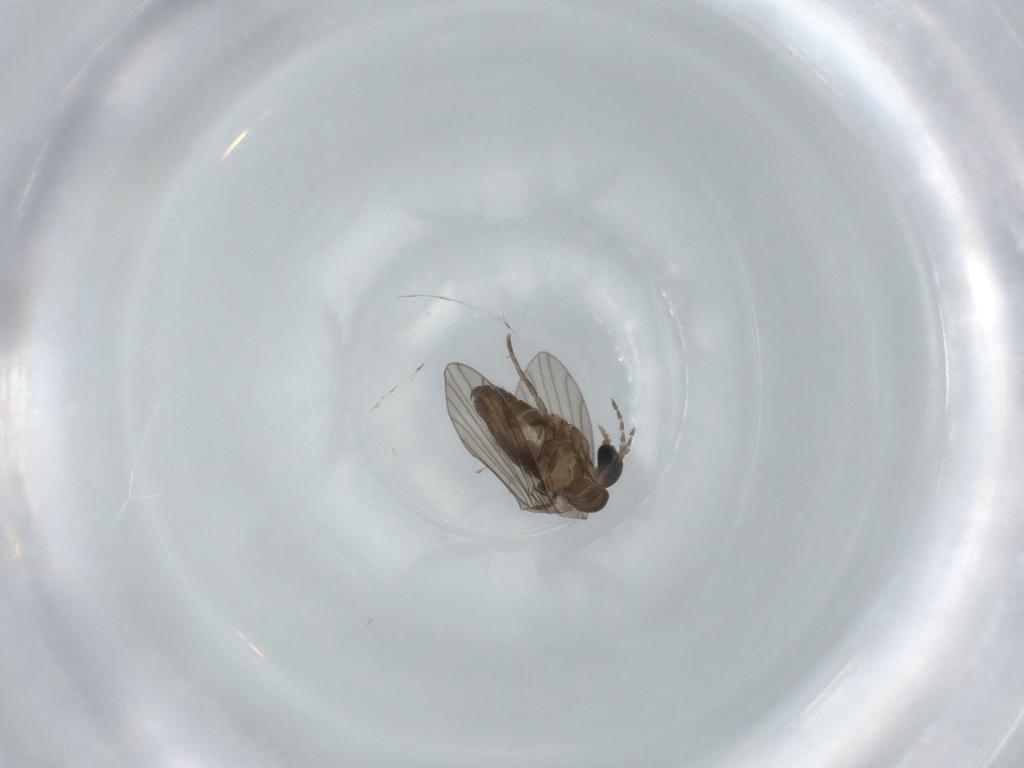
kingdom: Animalia
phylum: Arthropoda
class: Insecta
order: Diptera
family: Psychodidae
